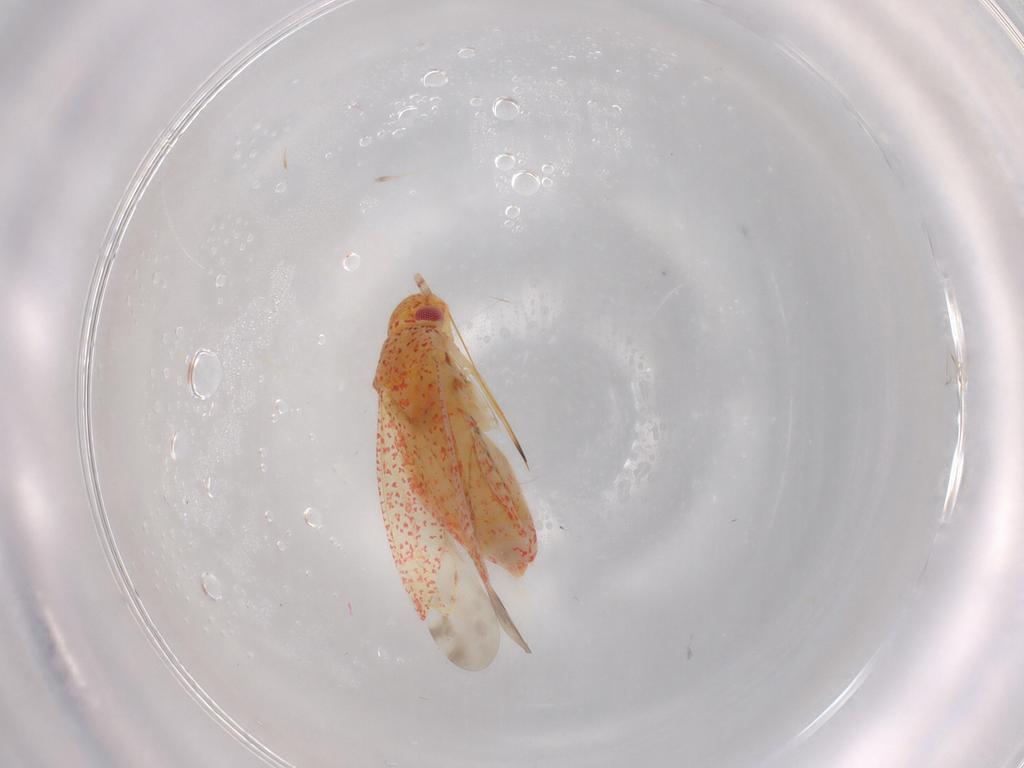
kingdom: Animalia
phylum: Arthropoda
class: Insecta
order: Hemiptera
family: Miridae
